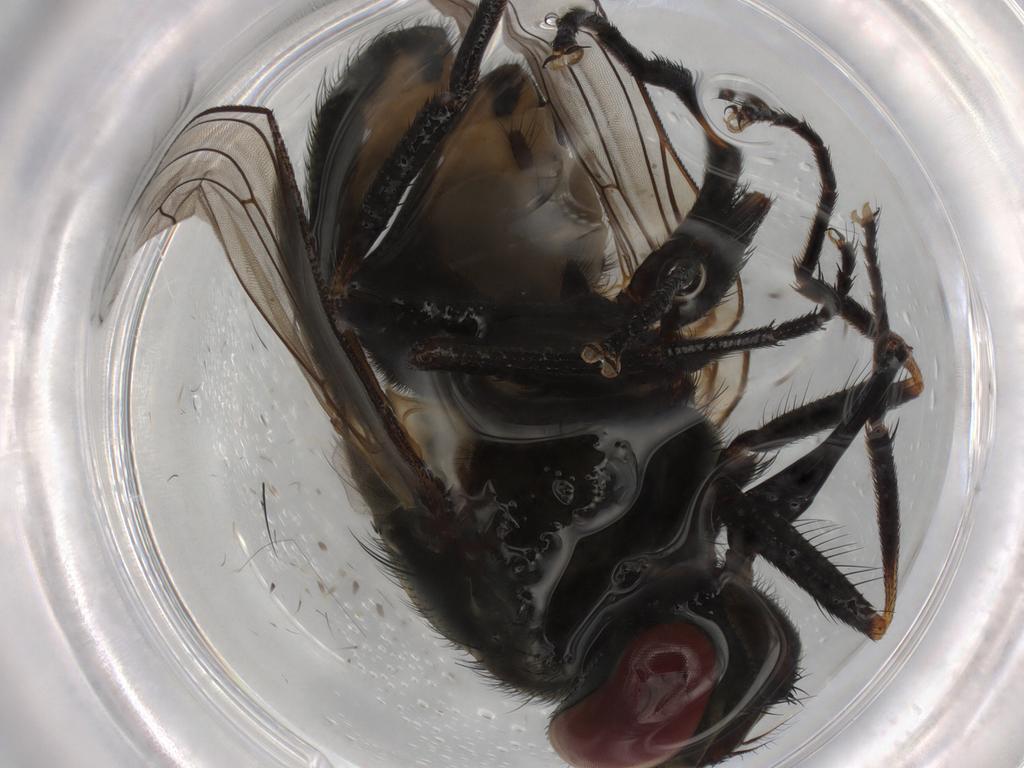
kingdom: Animalia
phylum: Arthropoda
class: Insecta
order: Diptera
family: Muscidae
